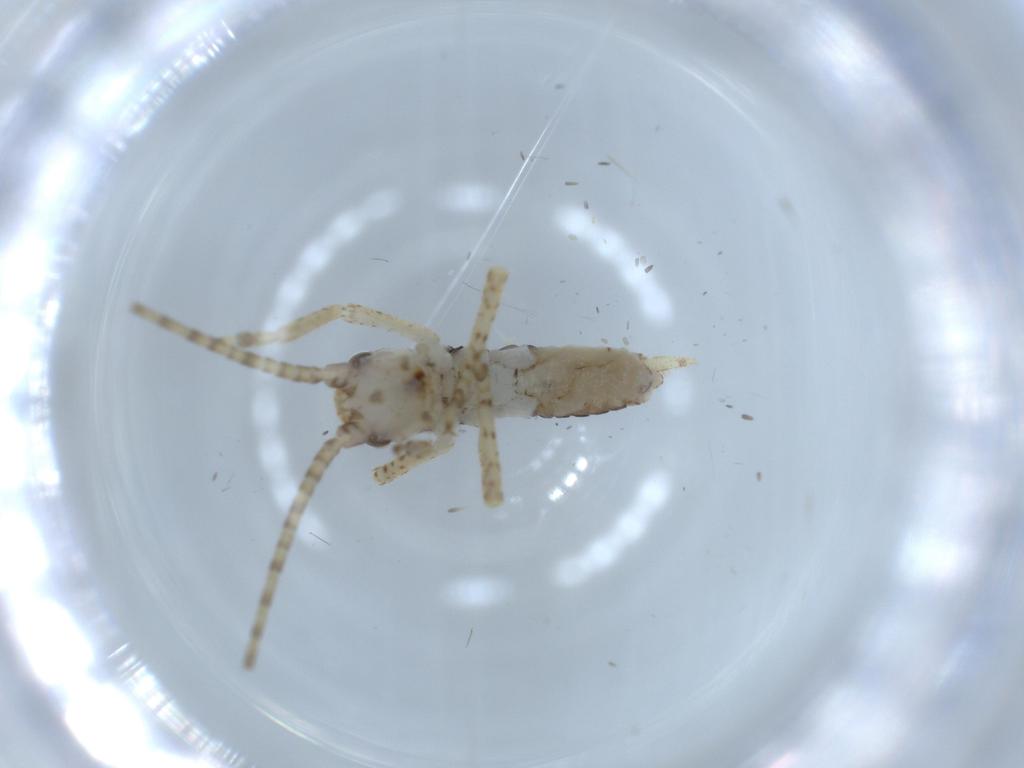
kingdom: Animalia
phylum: Arthropoda
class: Insecta
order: Orthoptera
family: Gryllidae
